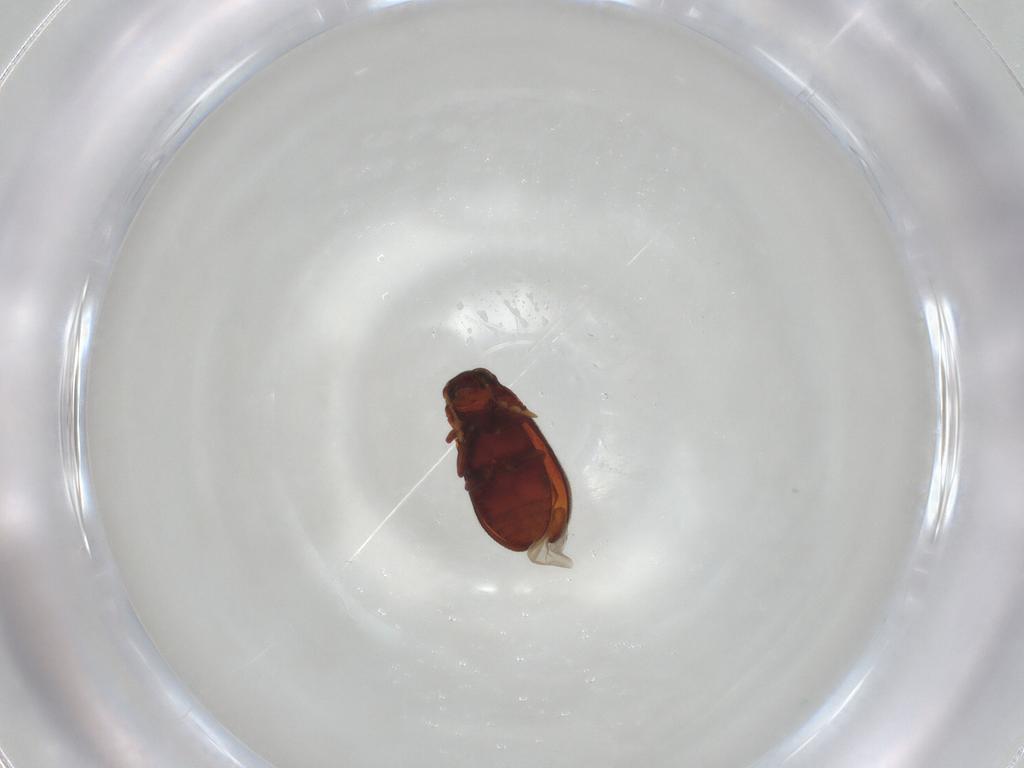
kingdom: Animalia
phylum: Arthropoda
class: Insecta
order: Coleoptera
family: Anobiidae
